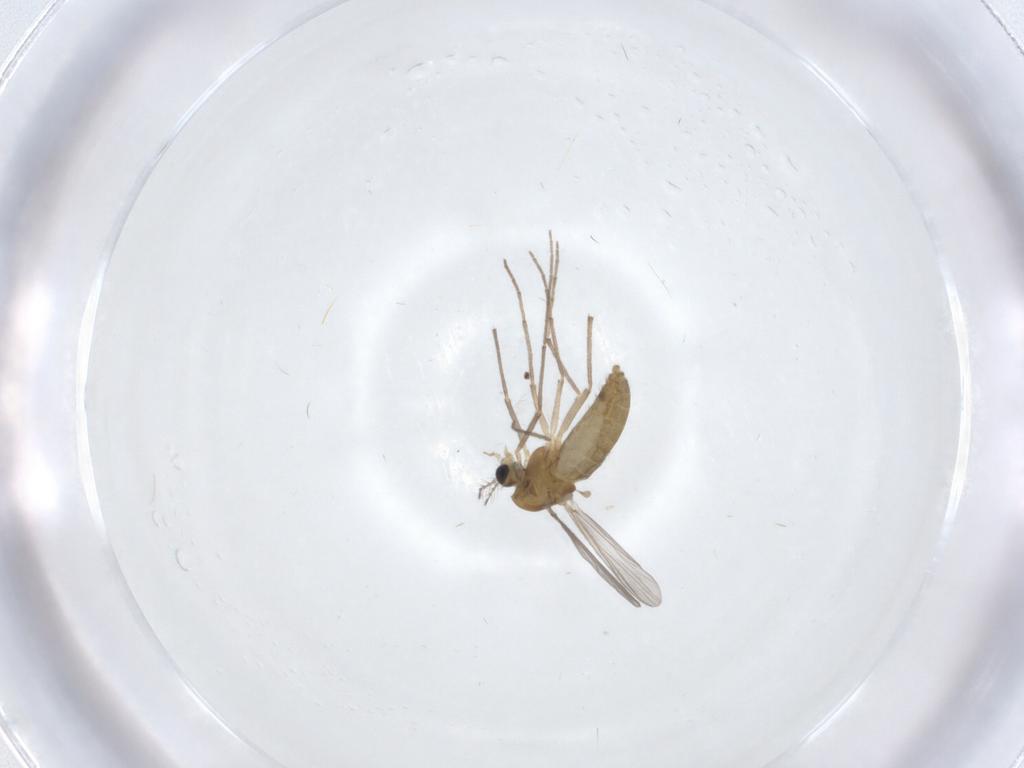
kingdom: Animalia
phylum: Arthropoda
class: Insecta
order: Diptera
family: Chironomidae
